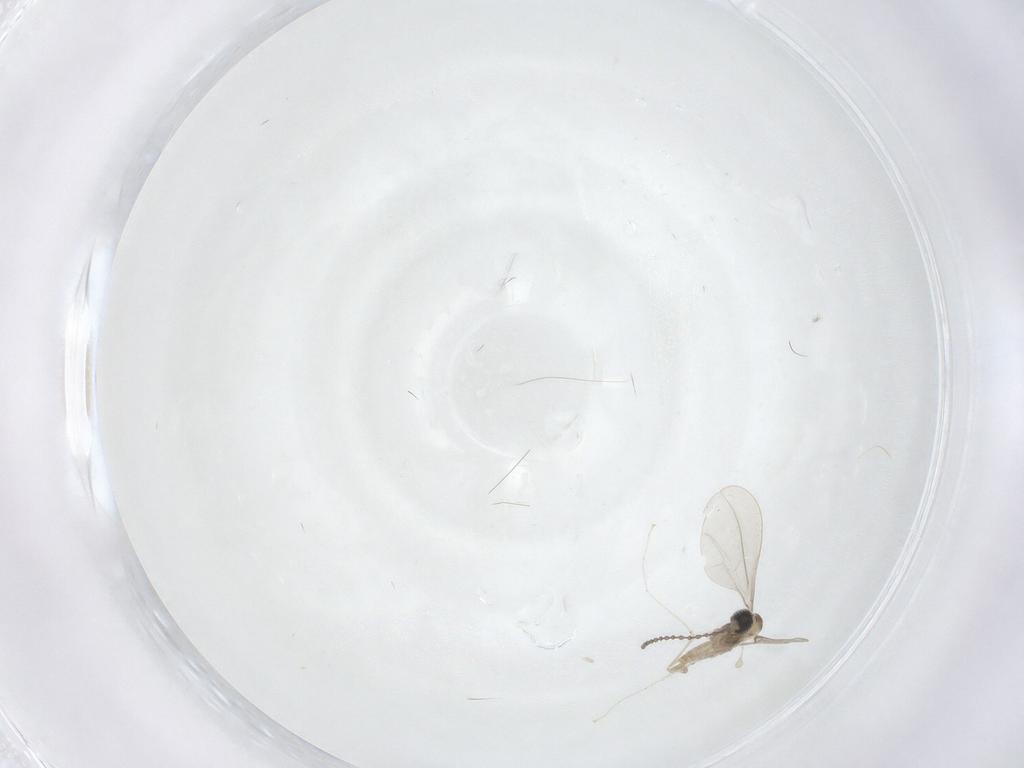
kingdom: Animalia
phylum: Arthropoda
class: Insecta
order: Diptera
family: Cecidomyiidae
